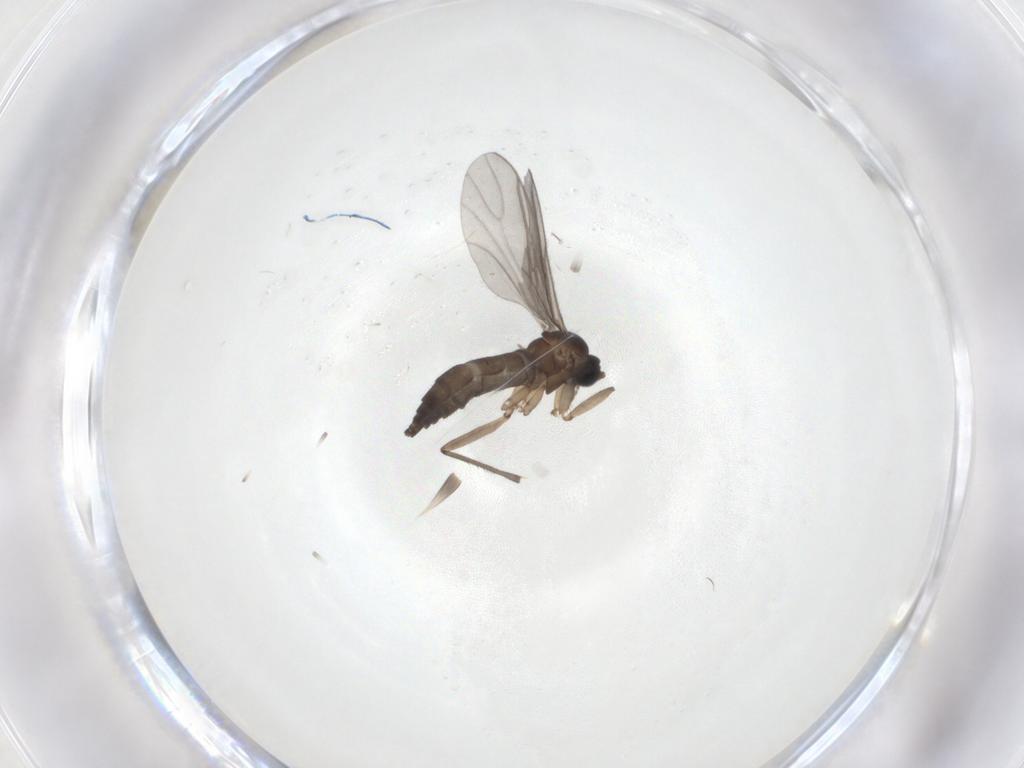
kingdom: Animalia
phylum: Arthropoda
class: Insecta
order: Diptera
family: Sciaridae
